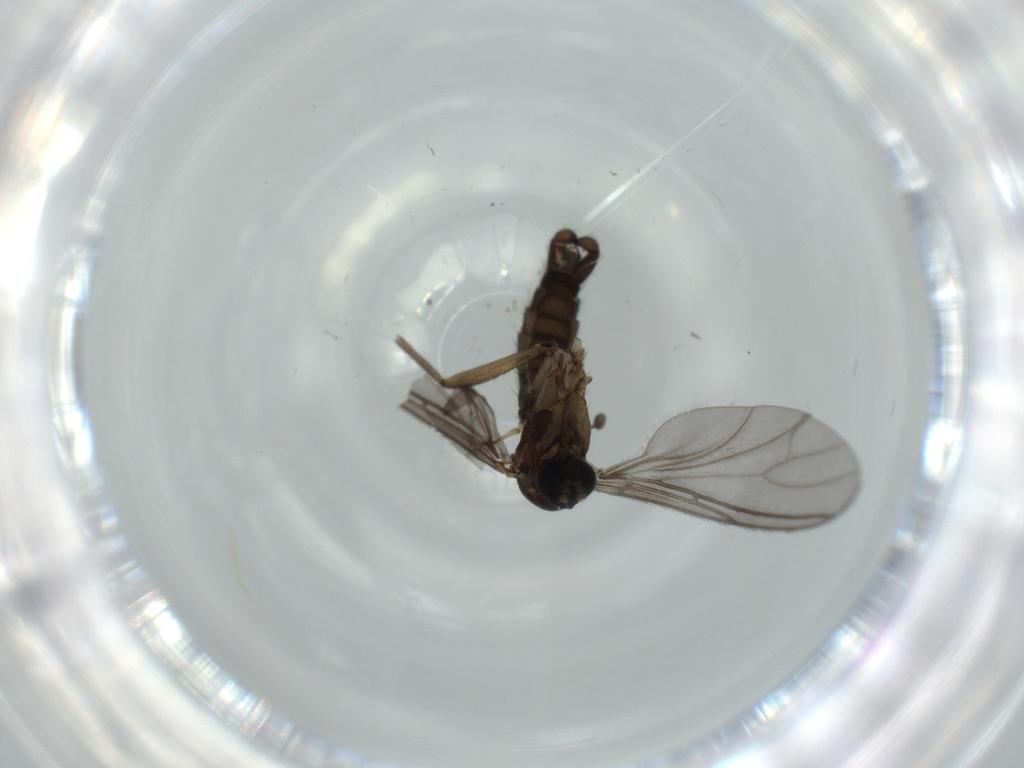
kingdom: Animalia
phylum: Arthropoda
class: Insecta
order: Diptera
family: Sciaridae
